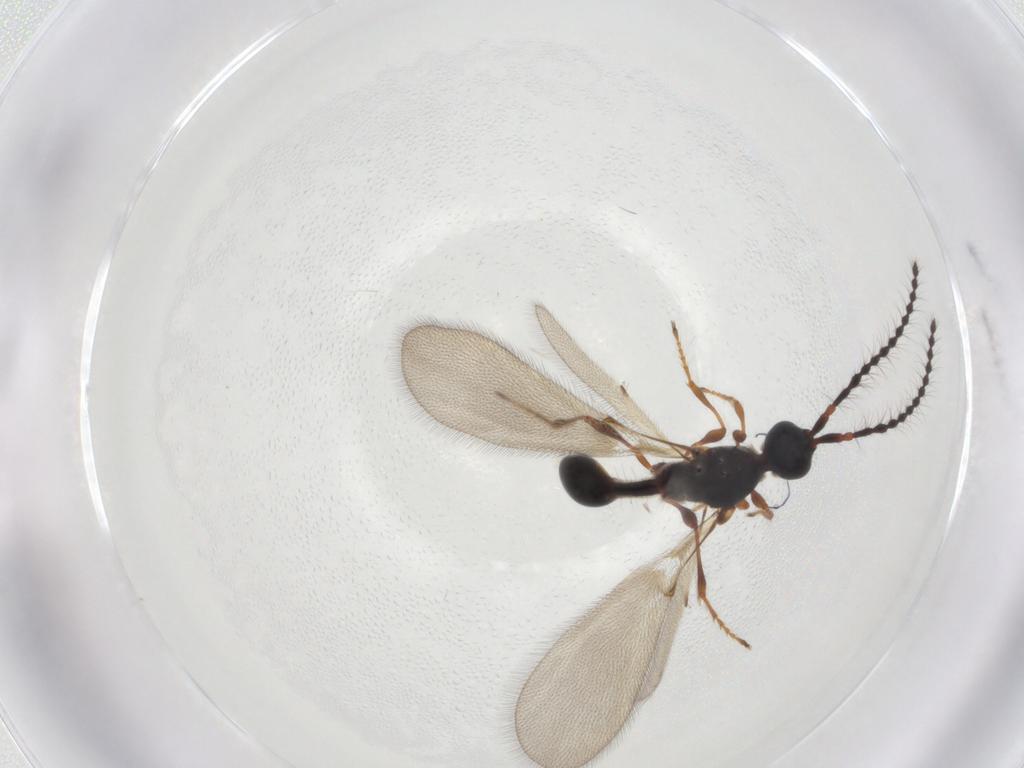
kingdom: Animalia
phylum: Arthropoda
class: Insecta
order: Hymenoptera
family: Diapriidae
